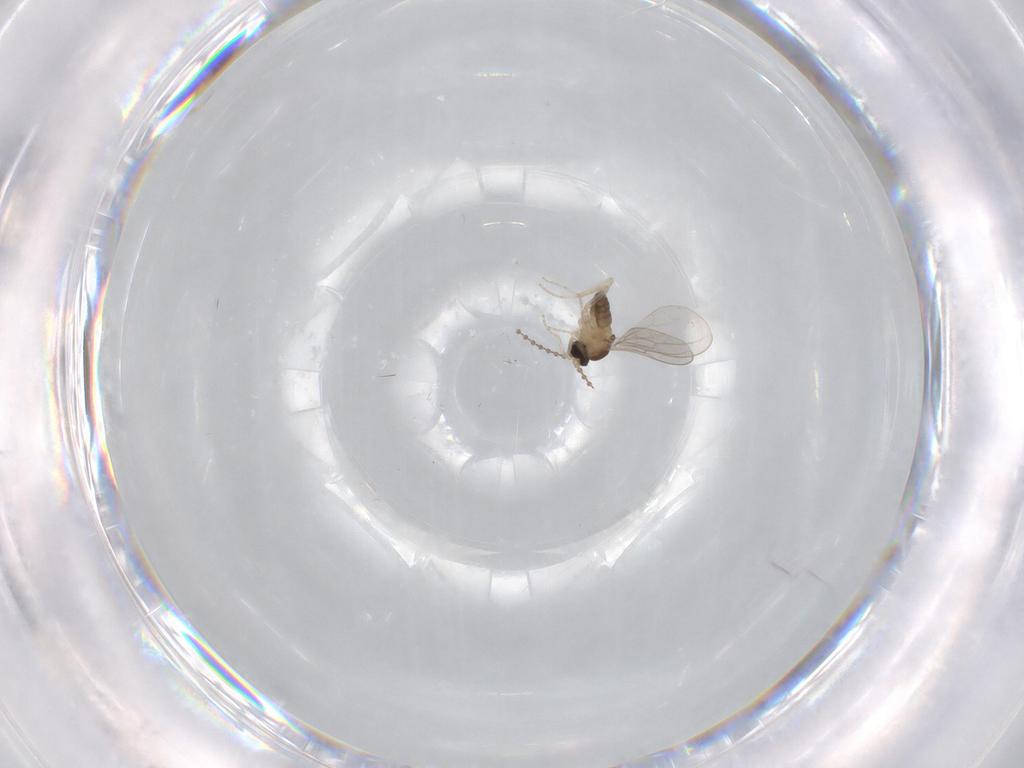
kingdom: Animalia
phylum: Arthropoda
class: Insecta
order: Diptera
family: Cecidomyiidae
